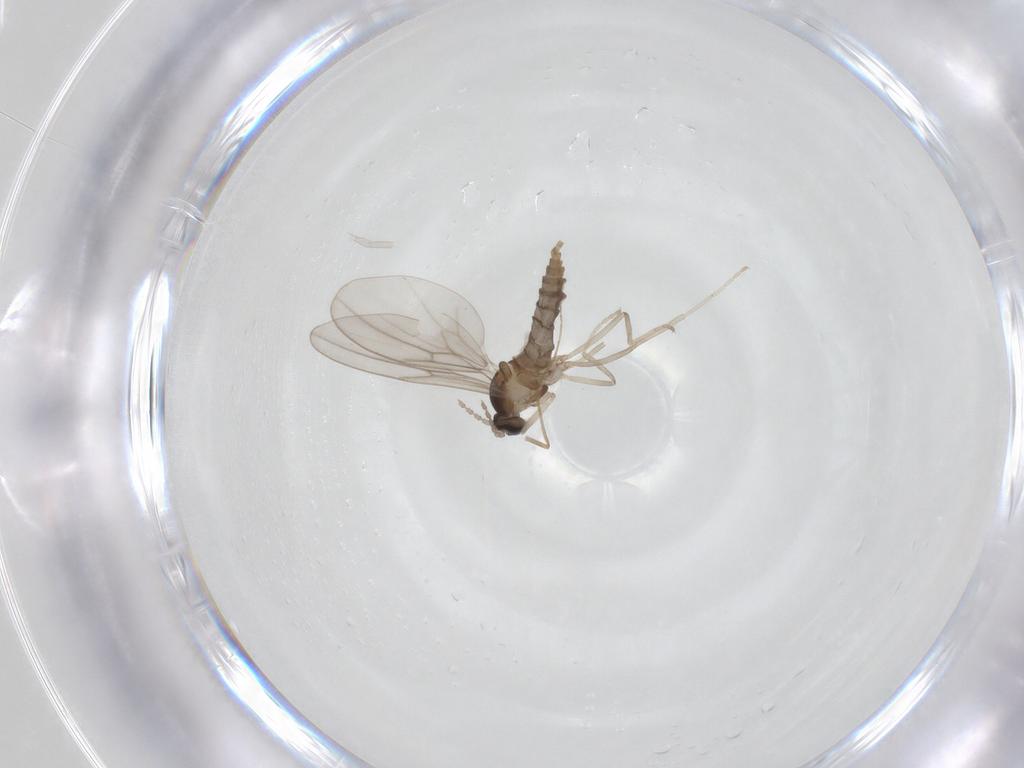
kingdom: Animalia
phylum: Arthropoda
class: Insecta
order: Diptera
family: Cecidomyiidae
